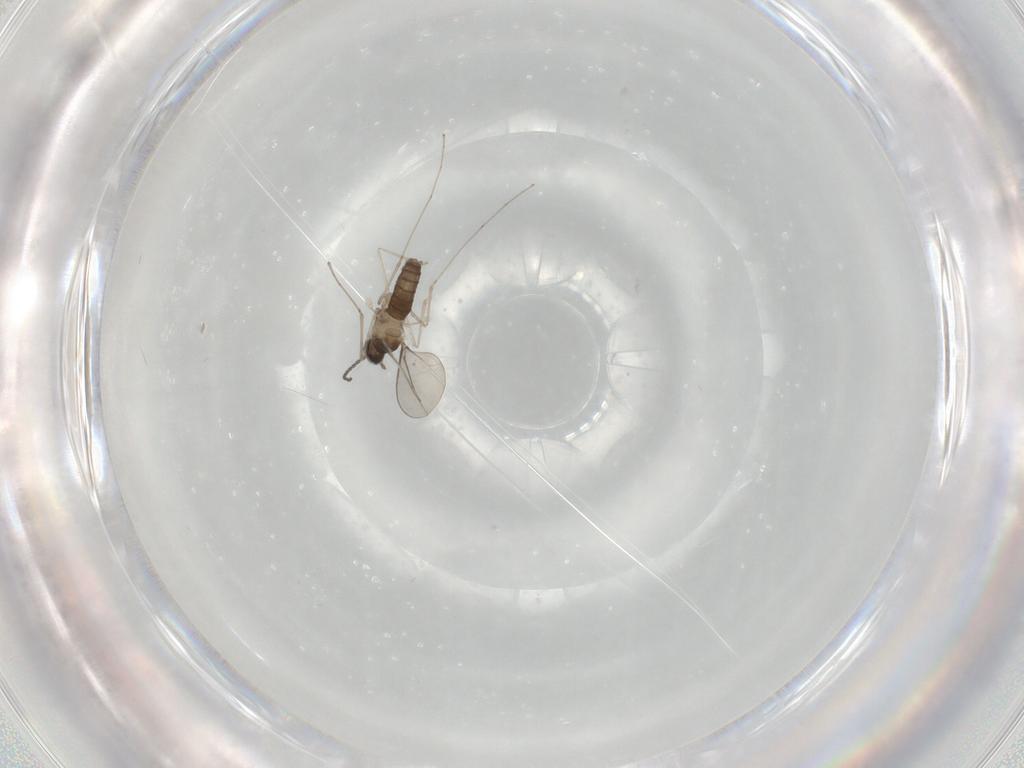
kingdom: Animalia
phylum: Arthropoda
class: Insecta
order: Diptera
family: Cecidomyiidae
